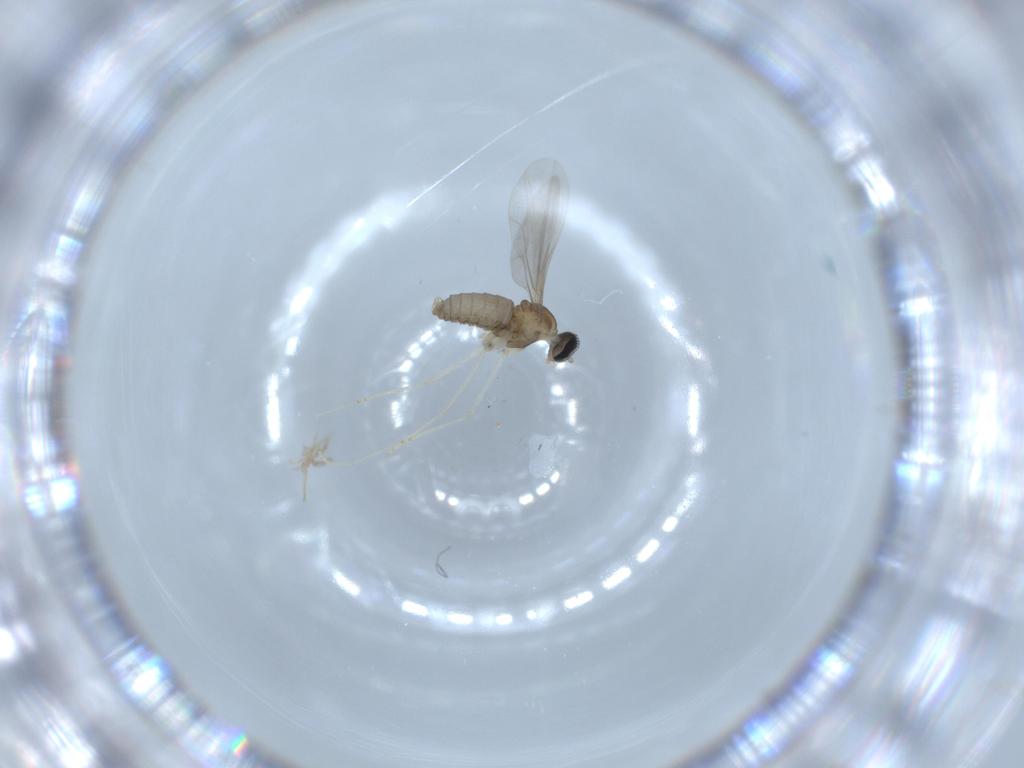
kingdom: Animalia
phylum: Arthropoda
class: Insecta
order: Diptera
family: Cecidomyiidae
